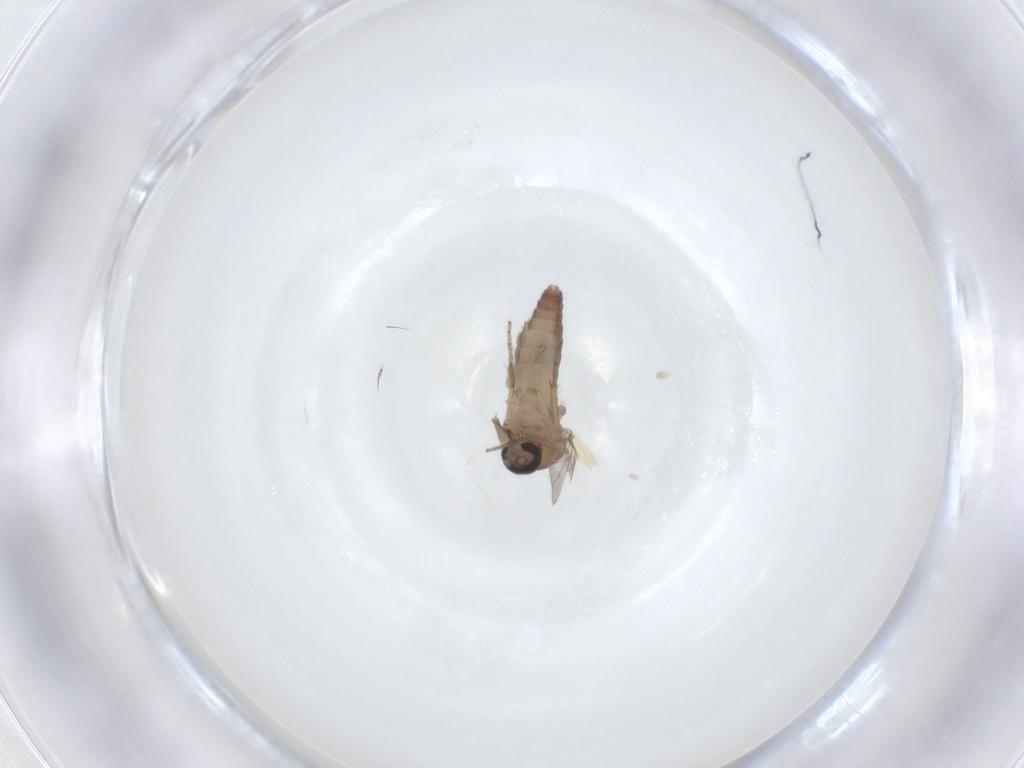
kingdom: Animalia
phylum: Arthropoda
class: Insecta
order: Diptera
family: Ceratopogonidae
